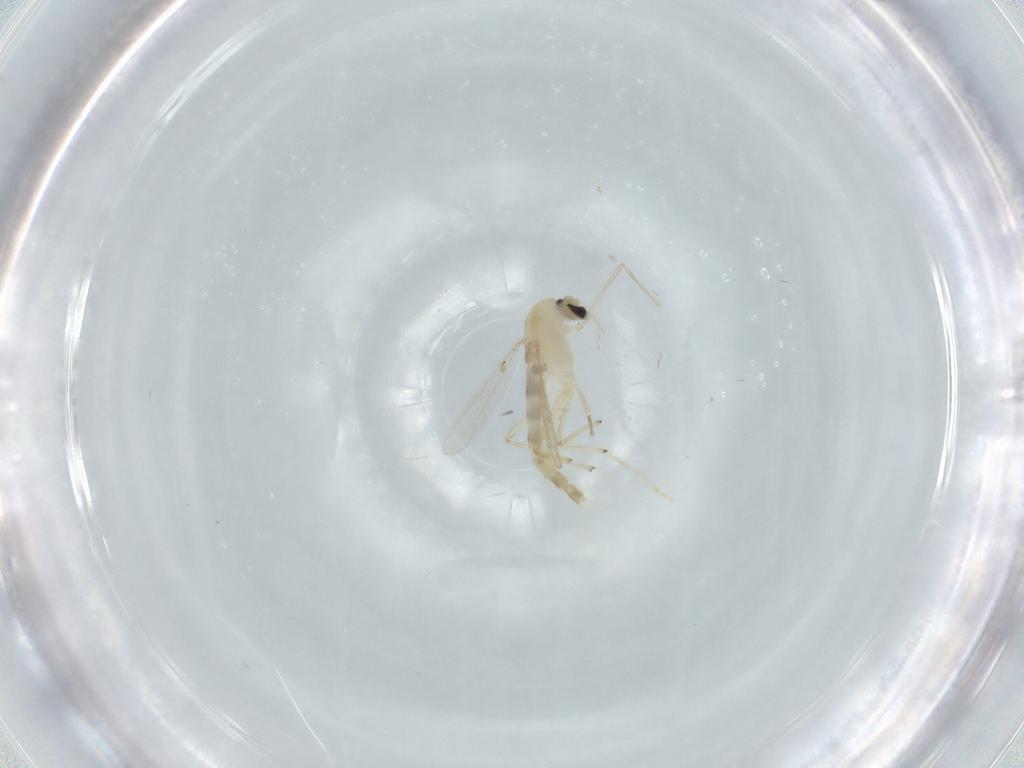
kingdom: Animalia
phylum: Arthropoda
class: Insecta
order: Diptera
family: Chironomidae
